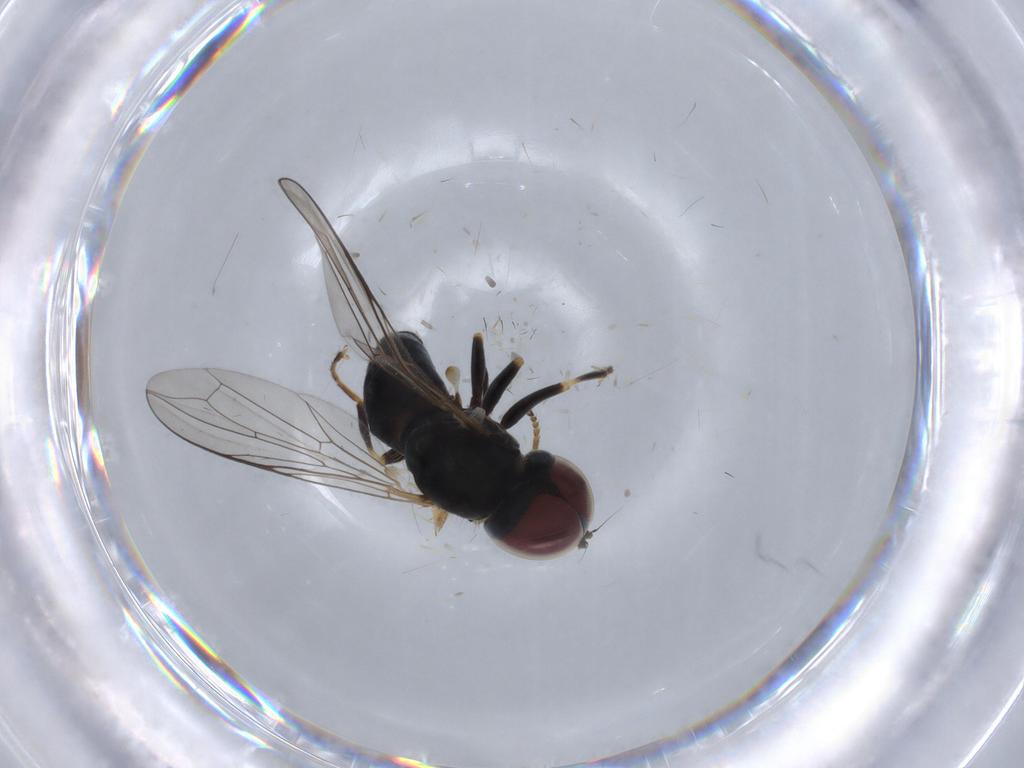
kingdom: Animalia
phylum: Arthropoda
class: Insecta
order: Diptera
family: Pipunculidae
